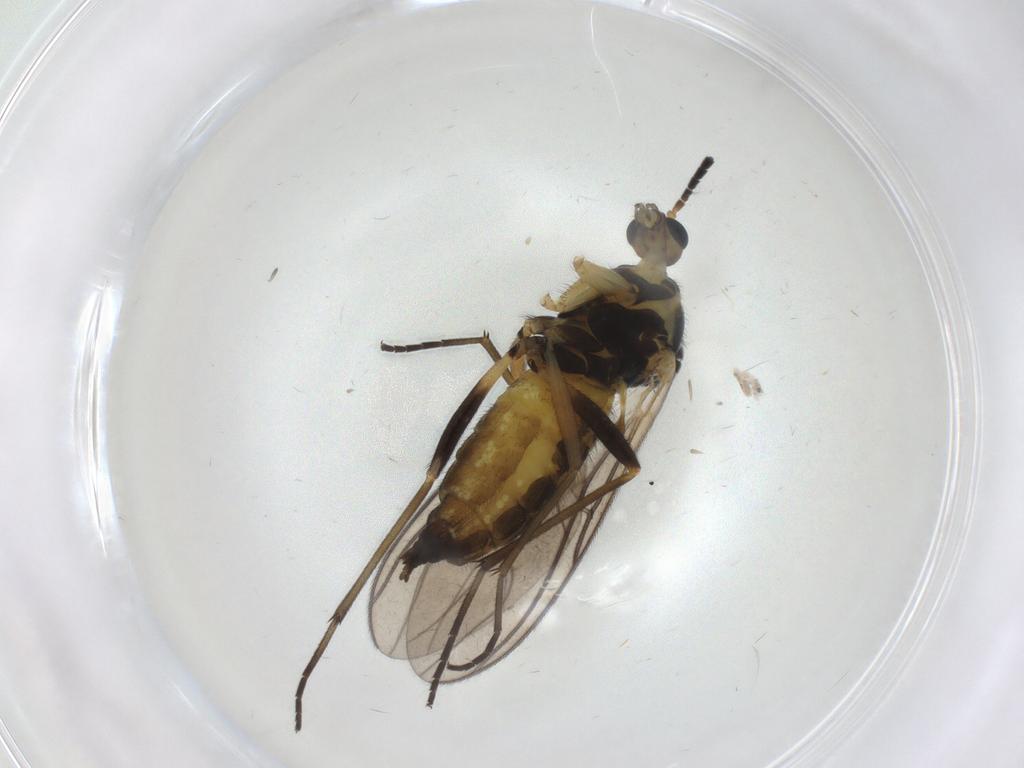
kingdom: Animalia
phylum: Arthropoda
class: Insecta
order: Diptera
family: Sciaridae
